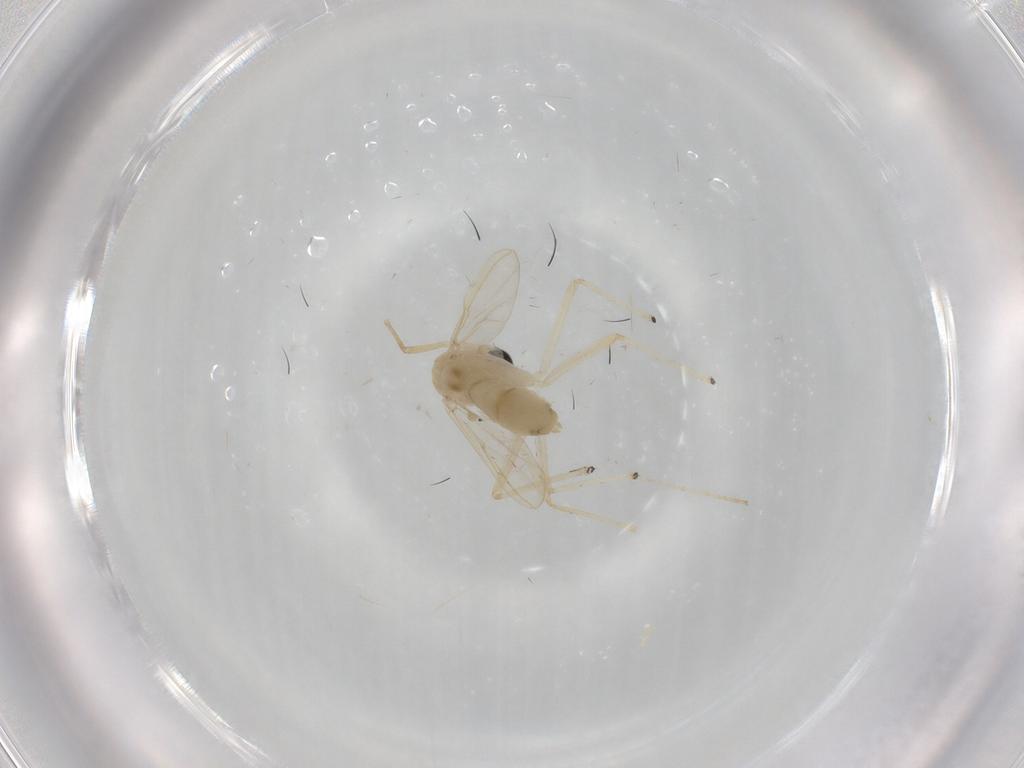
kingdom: Animalia
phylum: Arthropoda
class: Insecta
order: Diptera
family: Chironomidae
